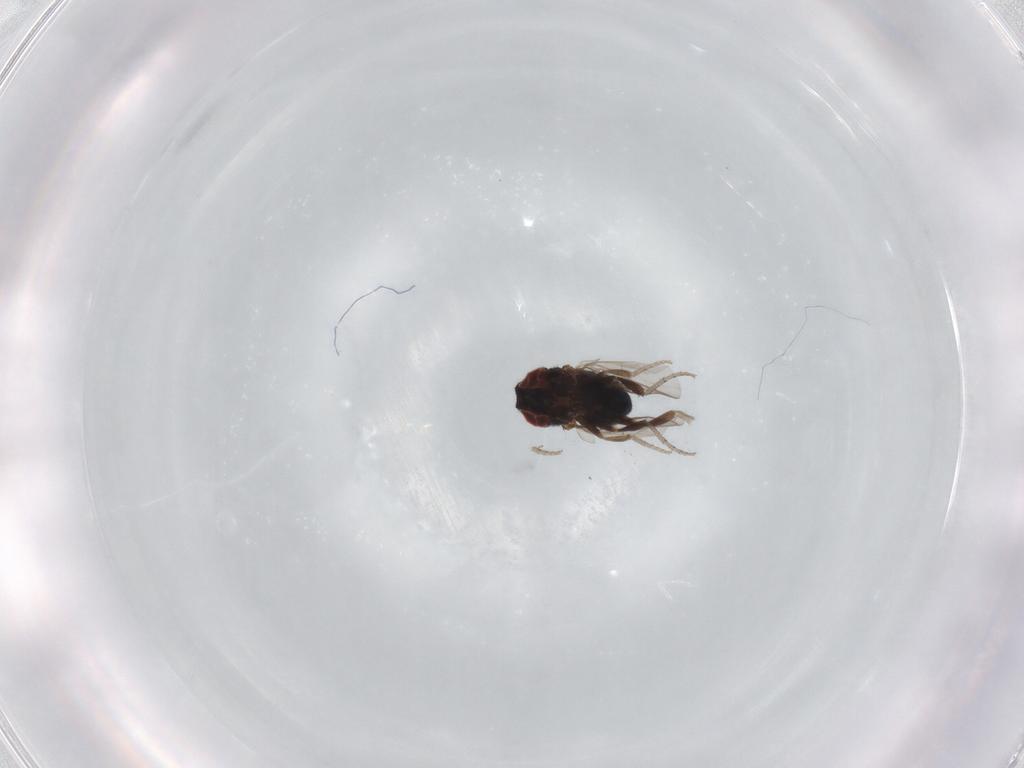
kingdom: Animalia
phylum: Arthropoda
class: Insecta
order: Diptera
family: Cryptochetidae
